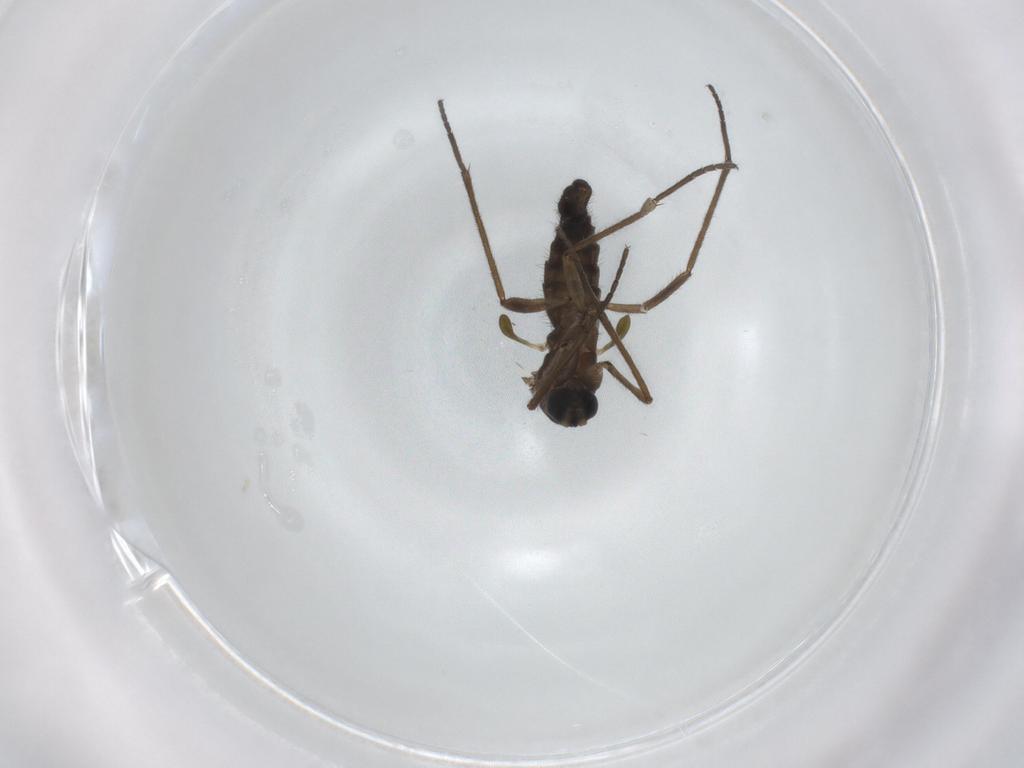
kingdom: Animalia
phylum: Arthropoda
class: Insecta
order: Diptera
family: Sciaridae
